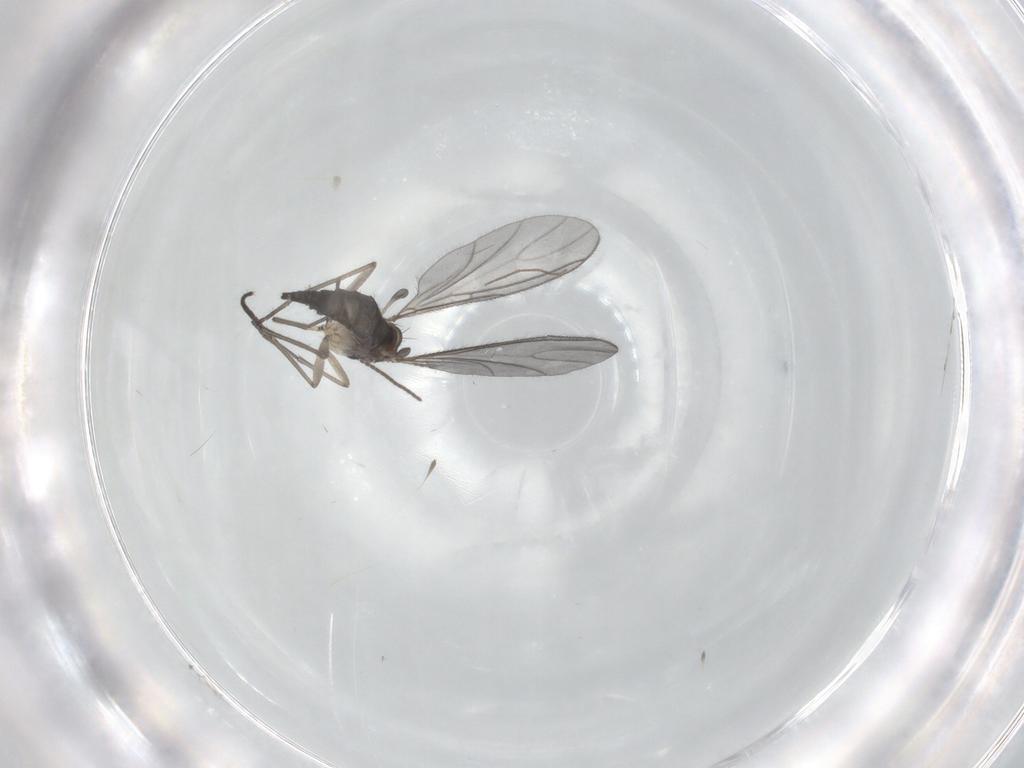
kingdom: Animalia
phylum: Arthropoda
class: Insecta
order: Diptera
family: Sciaridae
